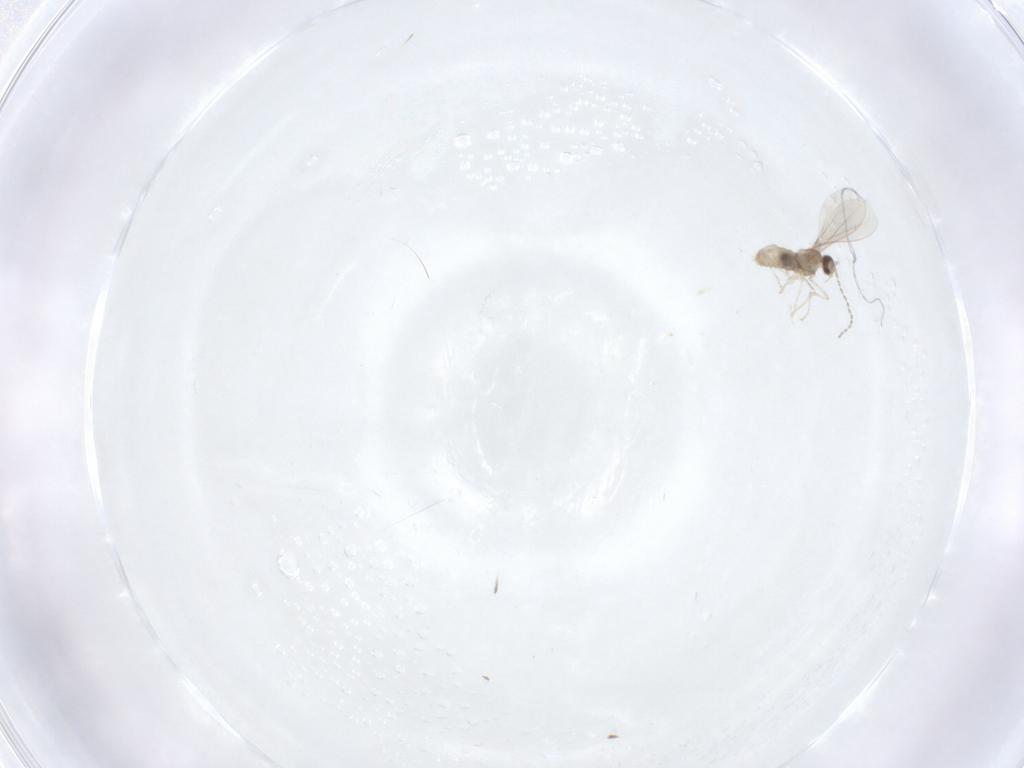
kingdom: Animalia
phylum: Arthropoda
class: Insecta
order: Diptera
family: Cecidomyiidae
